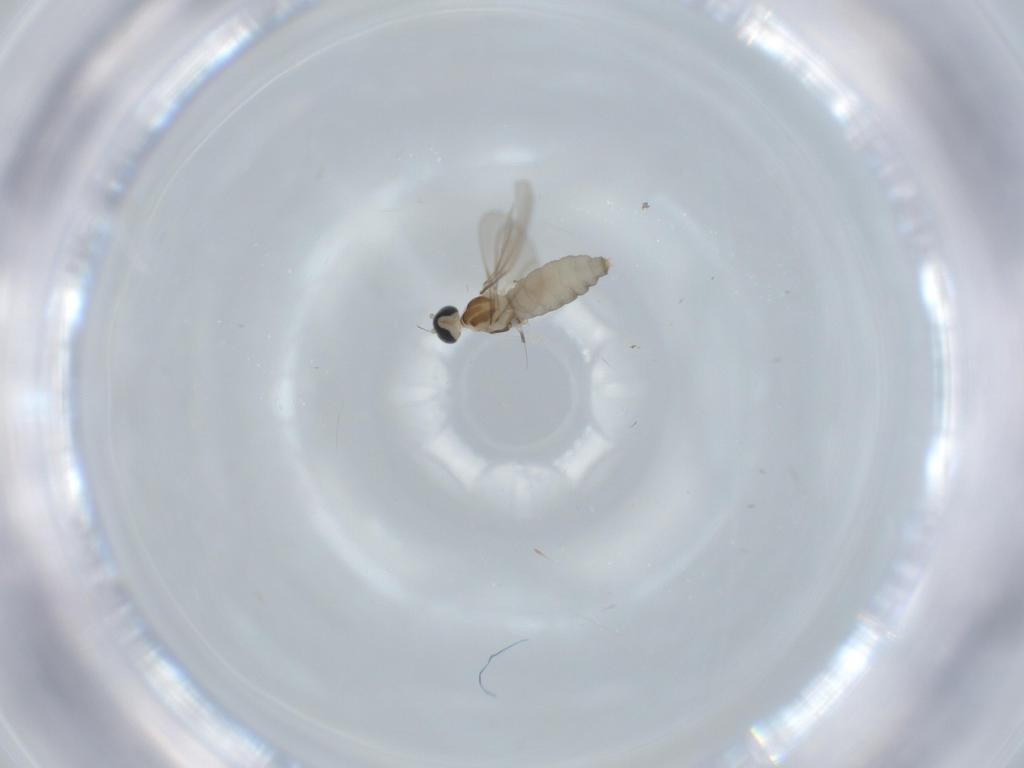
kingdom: Animalia
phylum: Arthropoda
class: Insecta
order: Diptera
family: Cecidomyiidae
